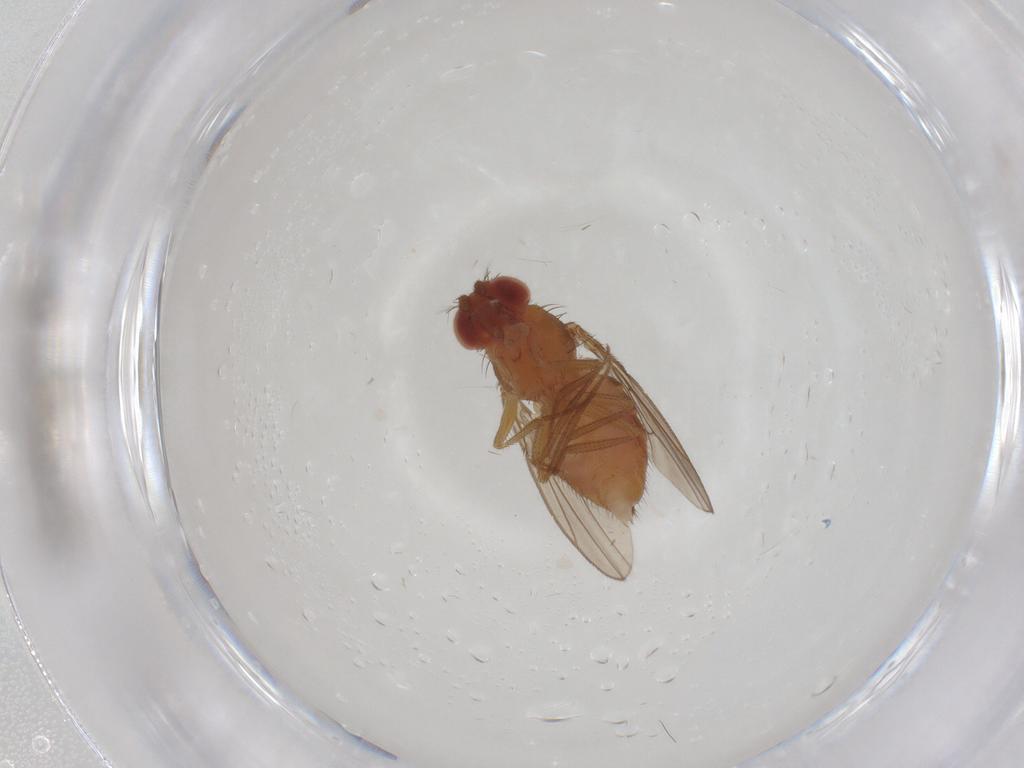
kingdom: Animalia
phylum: Arthropoda
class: Insecta
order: Diptera
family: Drosophilidae
